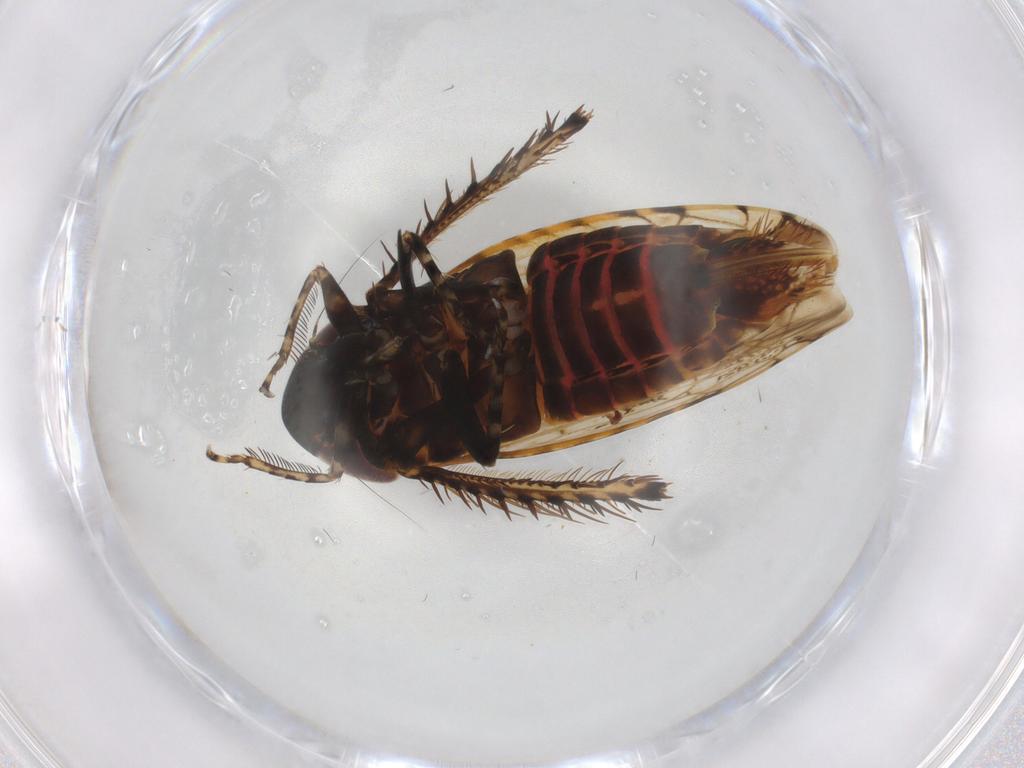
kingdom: Animalia
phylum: Arthropoda
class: Insecta
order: Hemiptera
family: Cicadellidae
